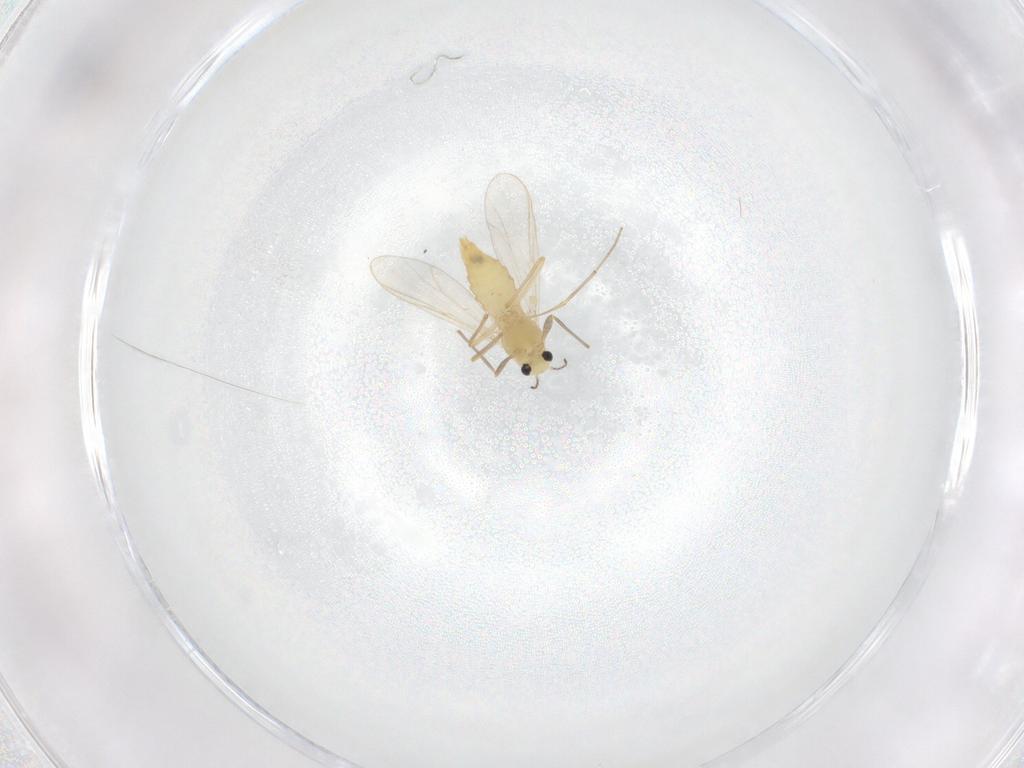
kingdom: Animalia
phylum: Arthropoda
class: Insecta
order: Diptera
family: Chironomidae
